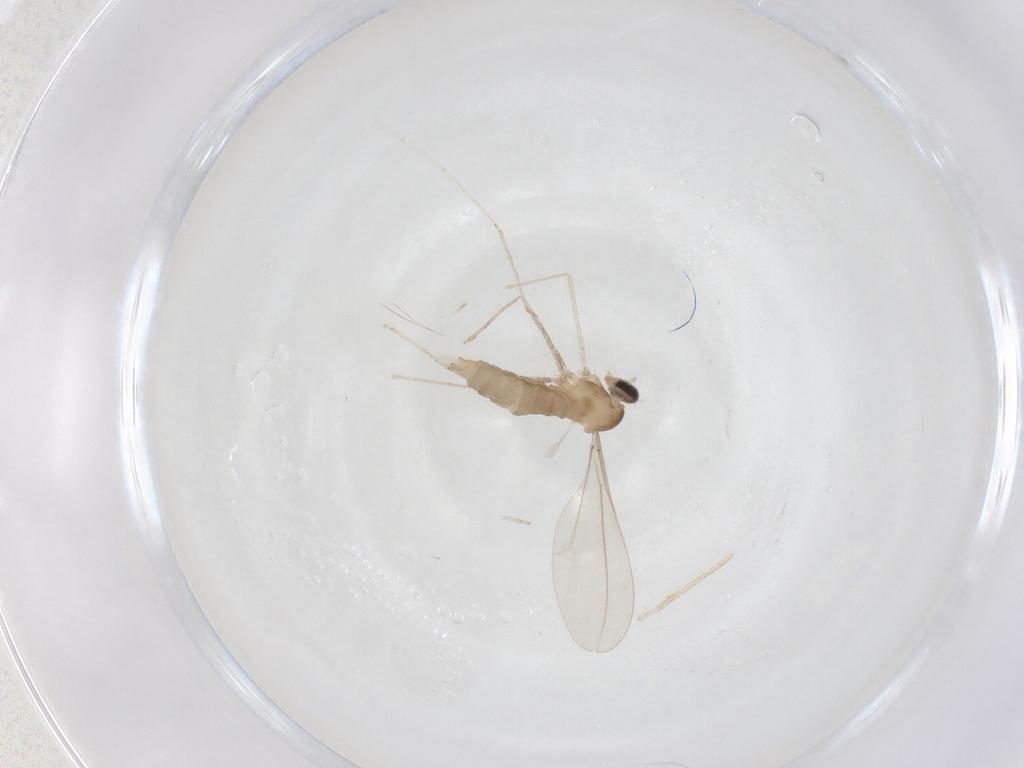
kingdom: Animalia
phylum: Arthropoda
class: Insecta
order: Diptera
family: Cecidomyiidae
